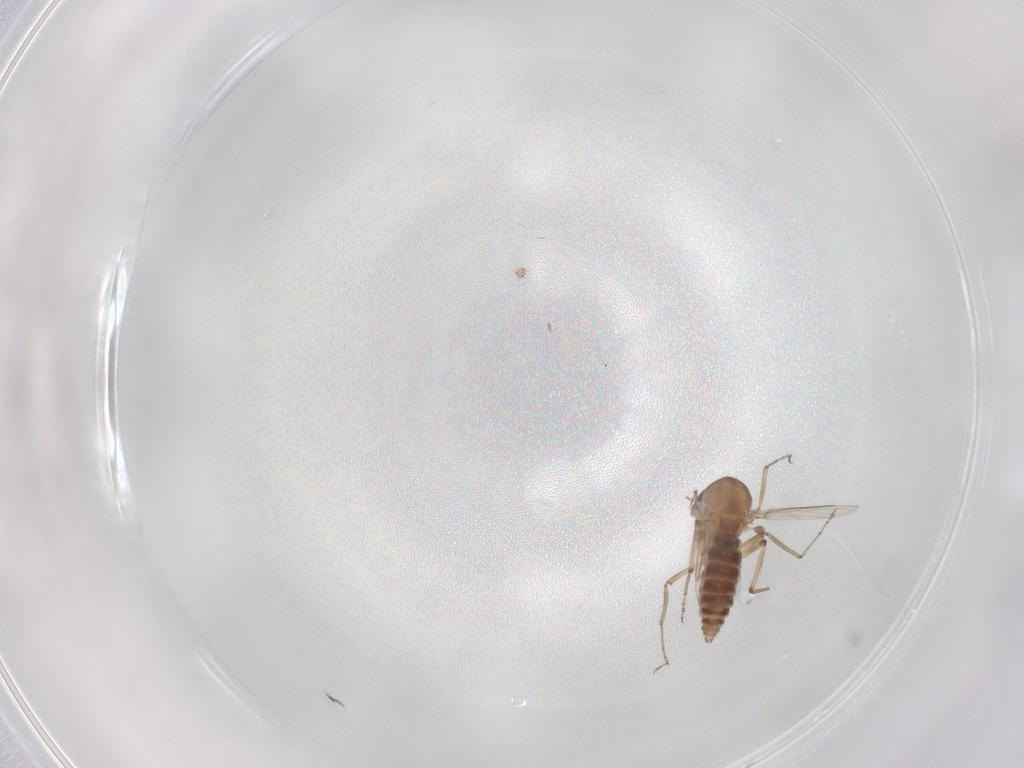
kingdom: Animalia
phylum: Arthropoda
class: Insecta
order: Diptera
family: Ceratopogonidae
